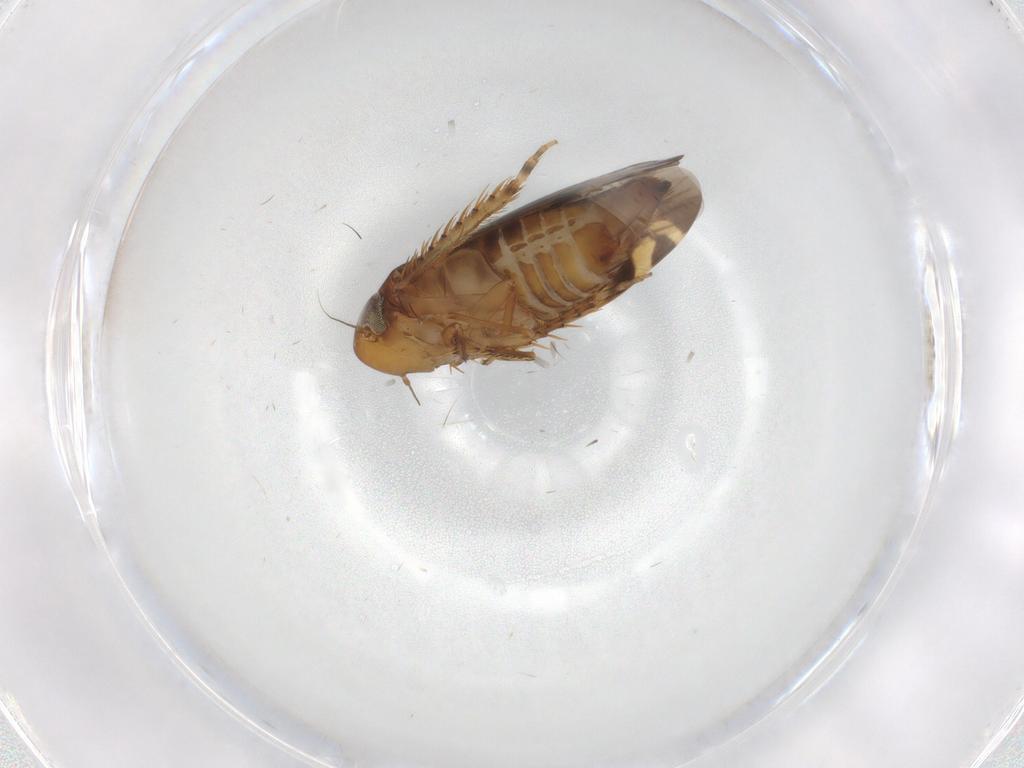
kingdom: Animalia
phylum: Arthropoda
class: Insecta
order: Hemiptera
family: Cicadellidae
